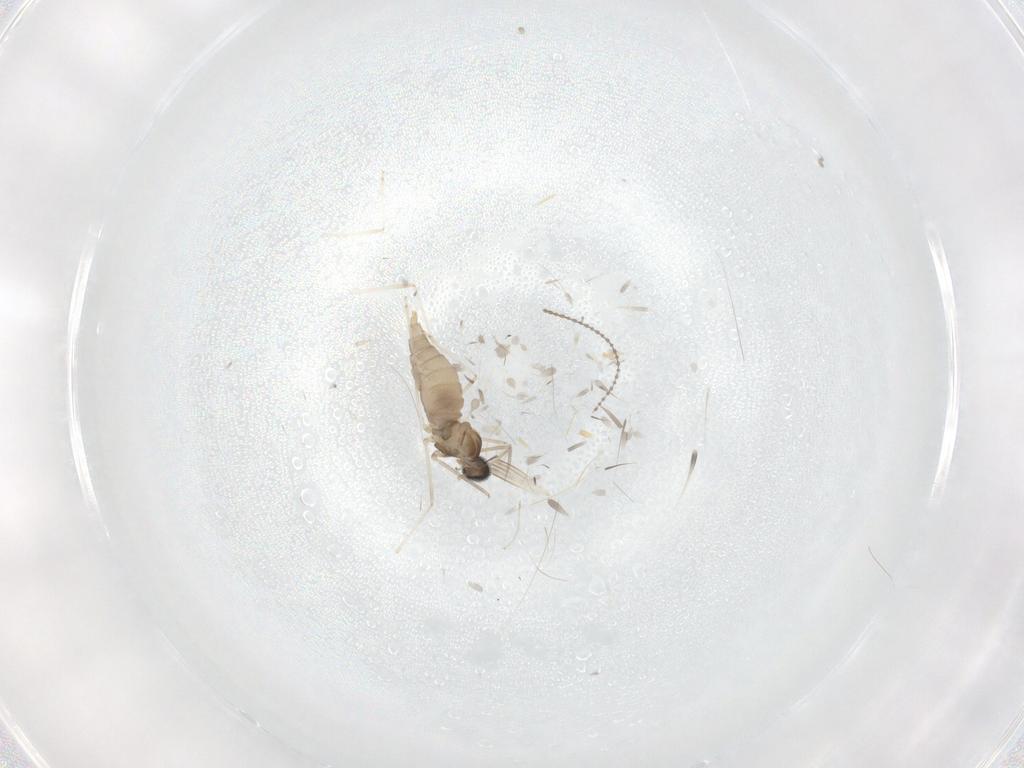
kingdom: Animalia
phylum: Arthropoda
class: Insecta
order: Diptera
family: Cecidomyiidae
